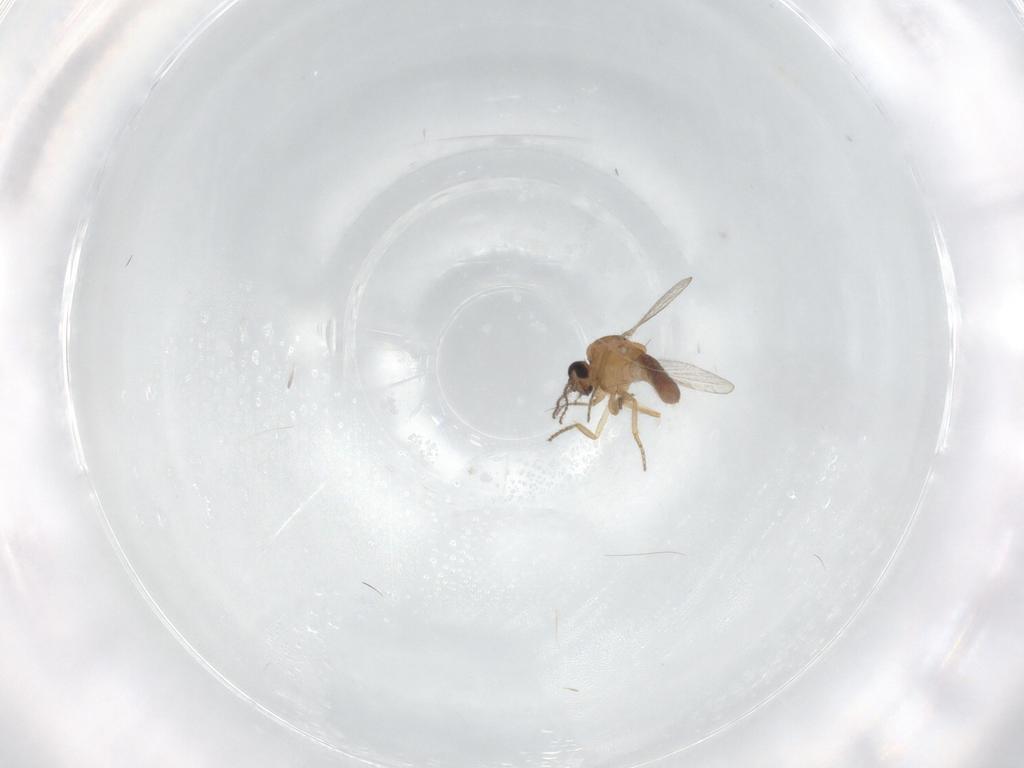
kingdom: Animalia
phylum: Arthropoda
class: Insecta
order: Diptera
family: Ceratopogonidae
